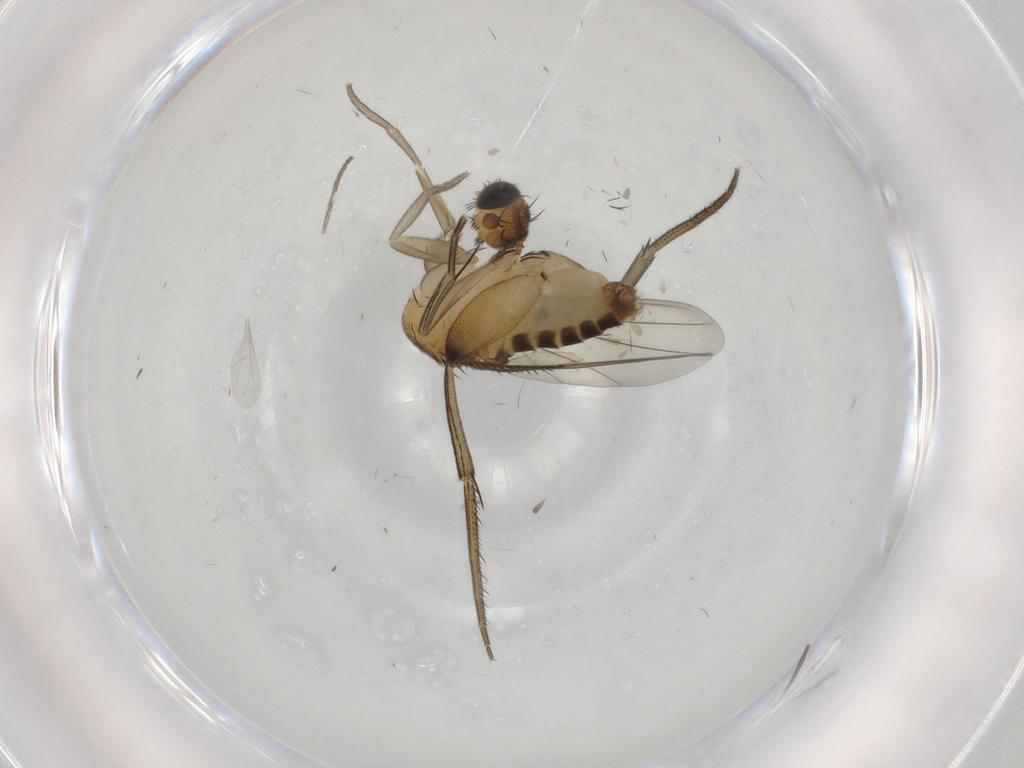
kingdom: Animalia
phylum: Arthropoda
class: Insecta
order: Diptera
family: Phoridae
